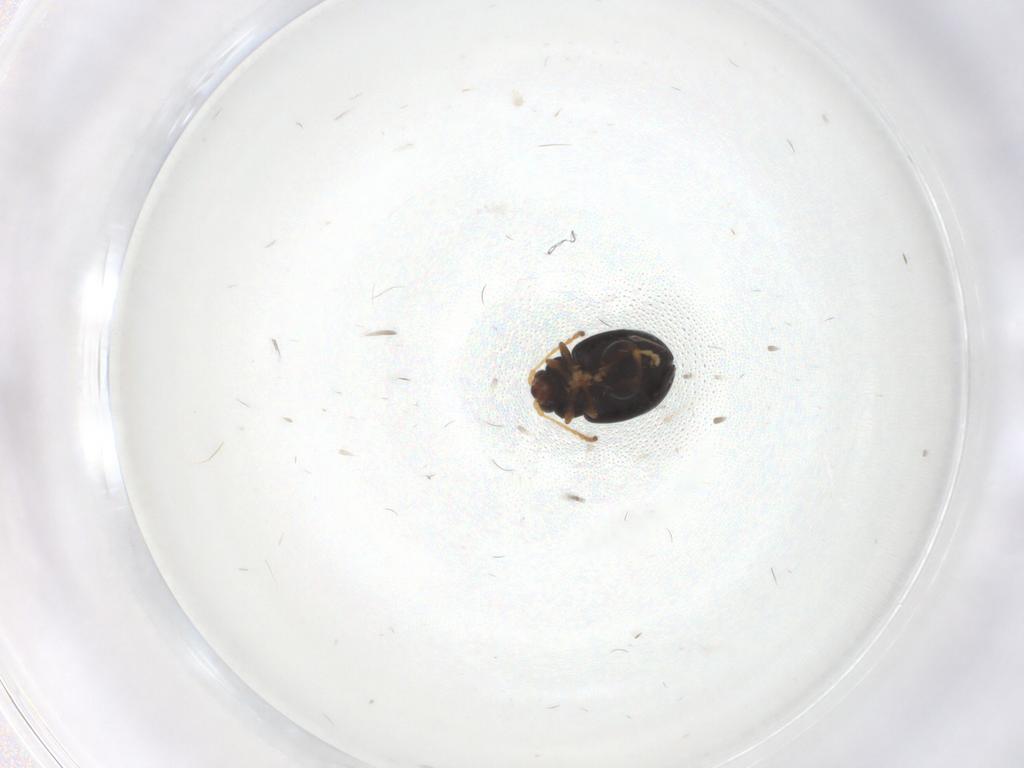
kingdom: Animalia
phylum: Arthropoda
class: Insecta
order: Coleoptera
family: Chrysomelidae
